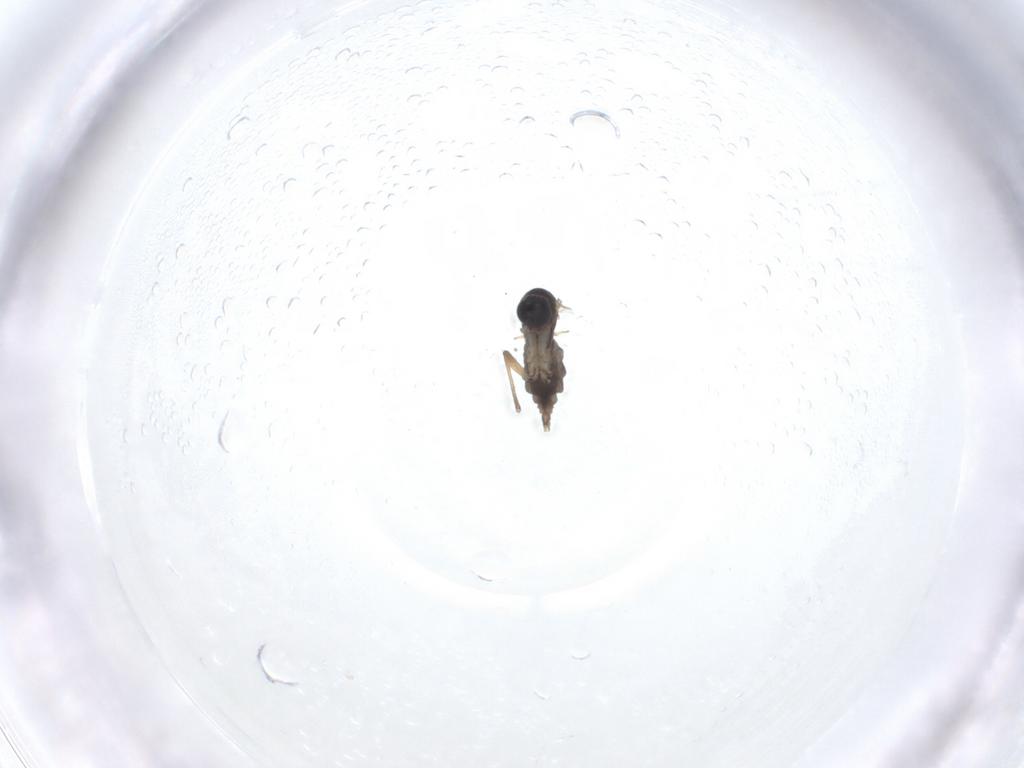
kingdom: Animalia
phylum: Arthropoda
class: Insecta
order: Diptera
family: Sciaridae
